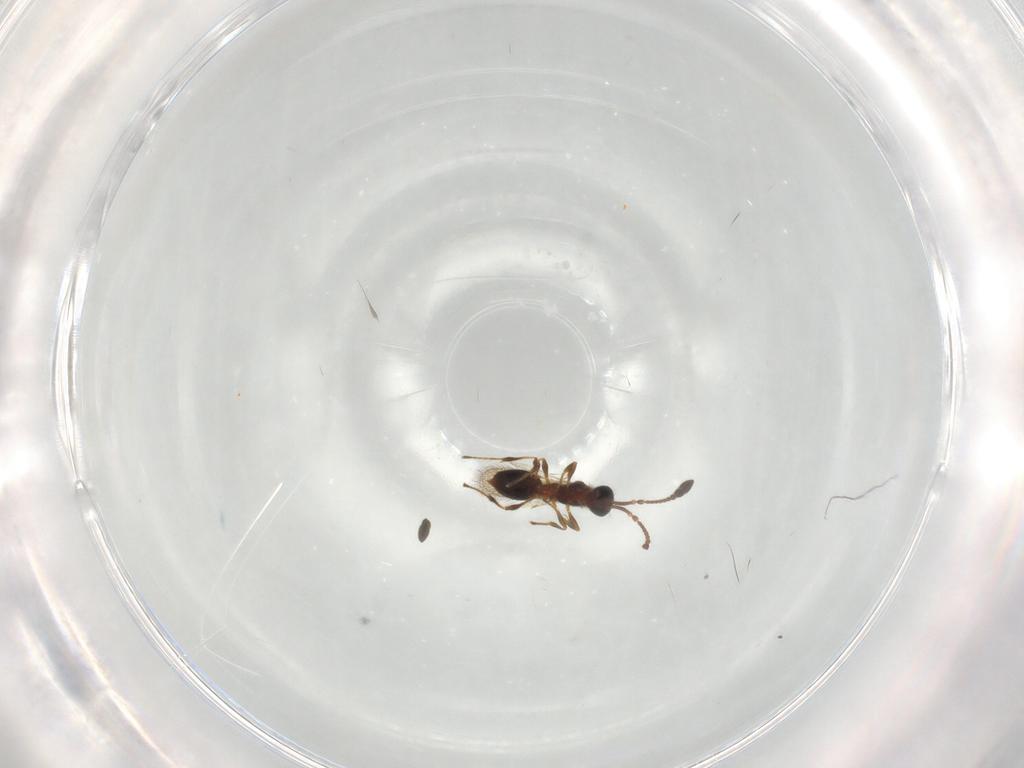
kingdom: Animalia
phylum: Arthropoda
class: Insecta
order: Hymenoptera
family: Diapriidae
